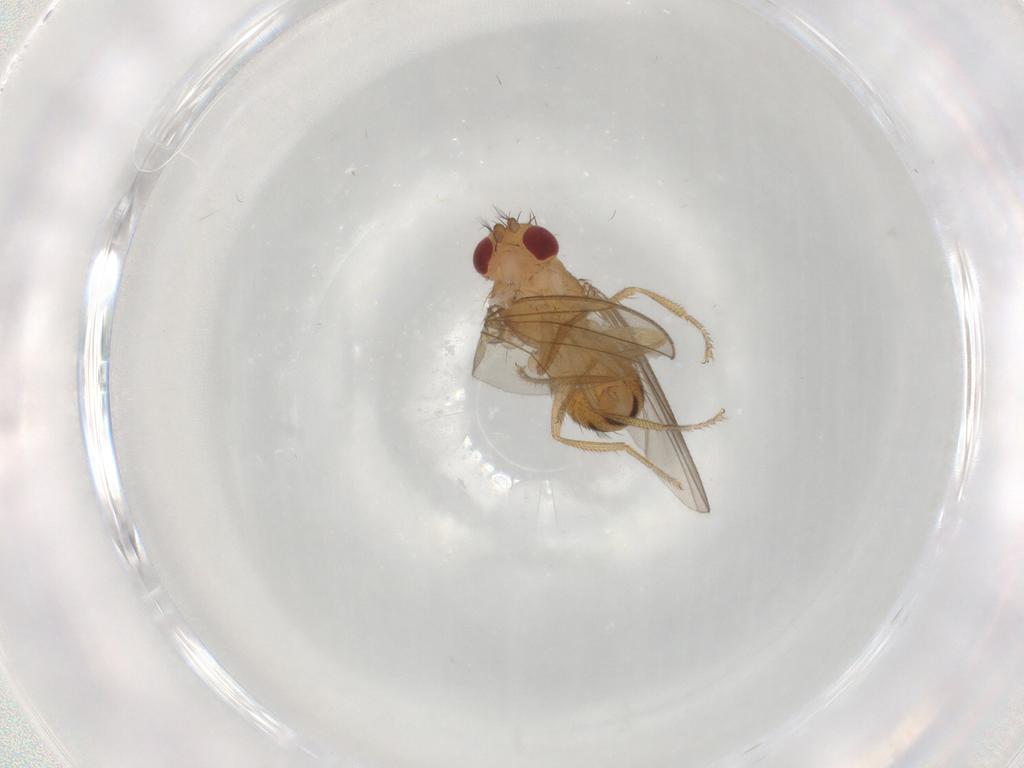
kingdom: Animalia
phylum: Arthropoda
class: Insecta
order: Diptera
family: Drosophilidae
